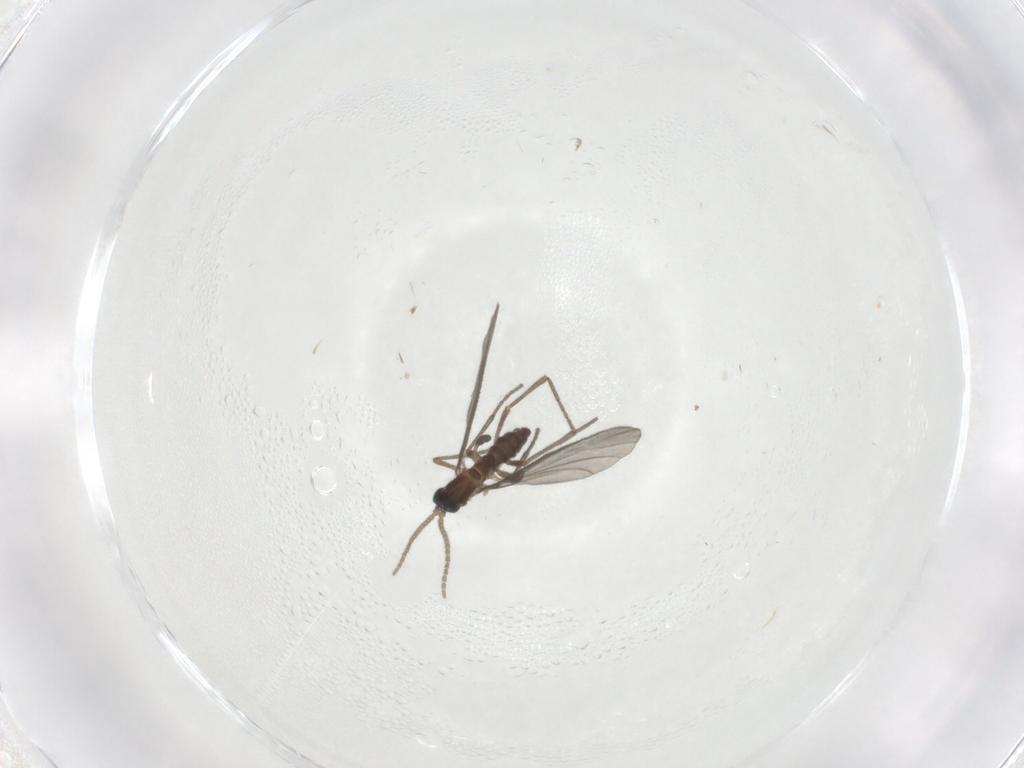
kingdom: Animalia
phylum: Arthropoda
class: Insecta
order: Diptera
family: Sciaridae
